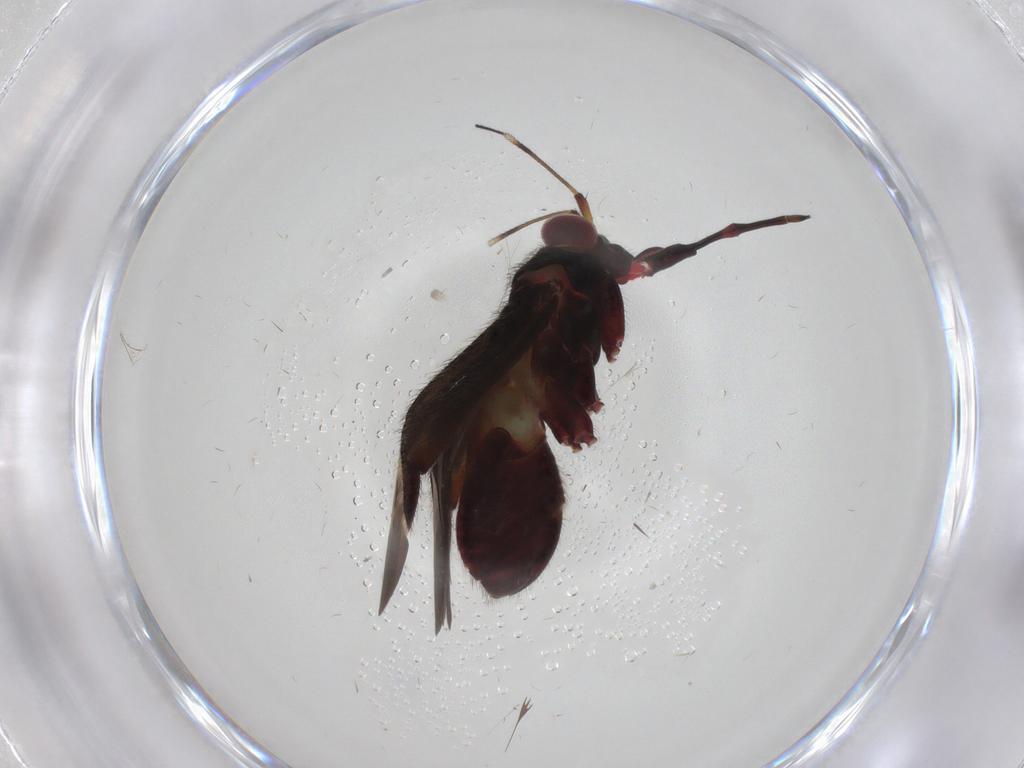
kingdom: Animalia
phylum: Arthropoda
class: Insecta
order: Hemiptera
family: Miridae
